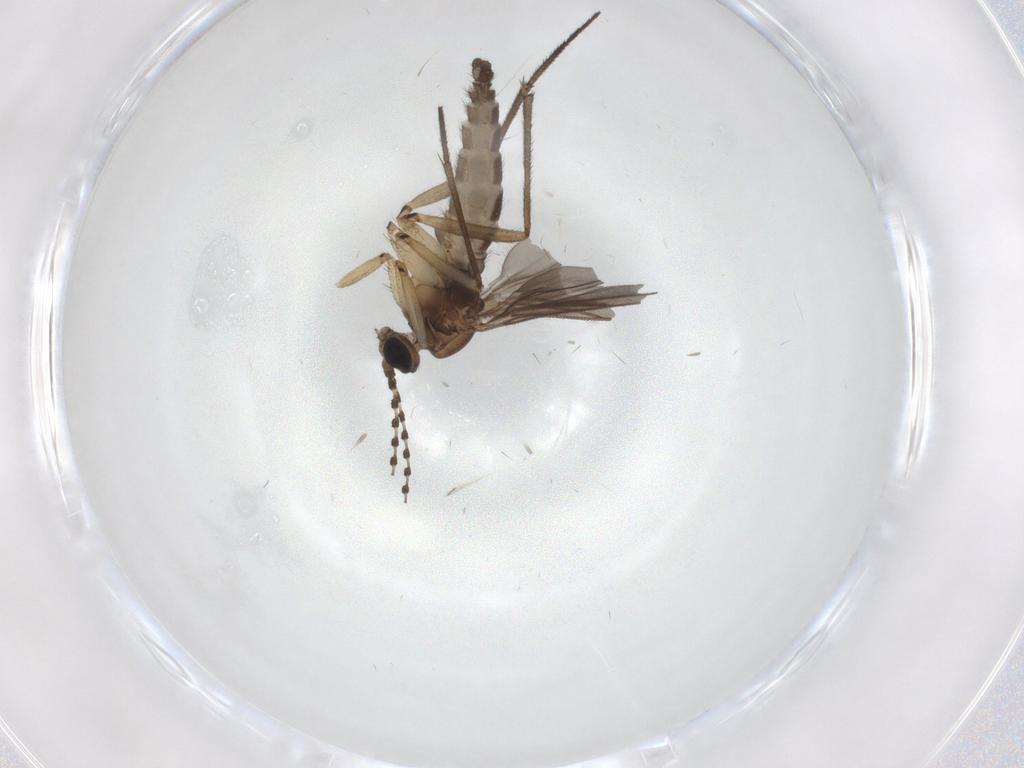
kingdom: Animalia
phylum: Arthropoda
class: Insecta
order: Diptera
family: Sciaridae
